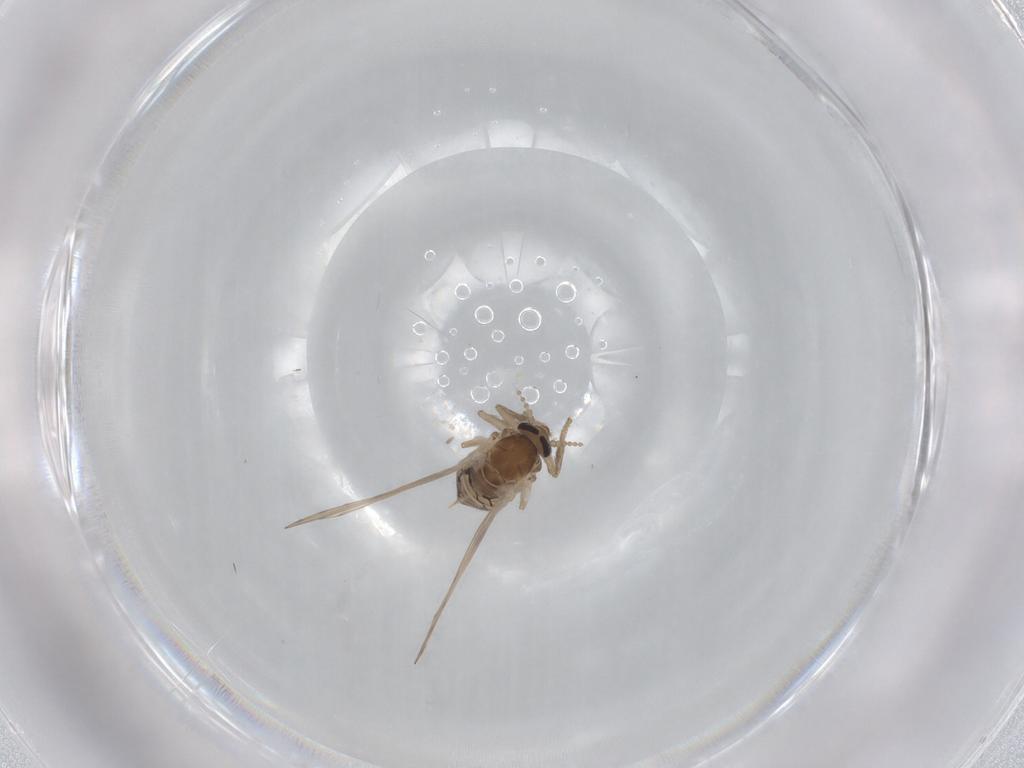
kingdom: Animalia
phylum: Arthropoda
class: Insecta
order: Diptera
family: Psychodidae
